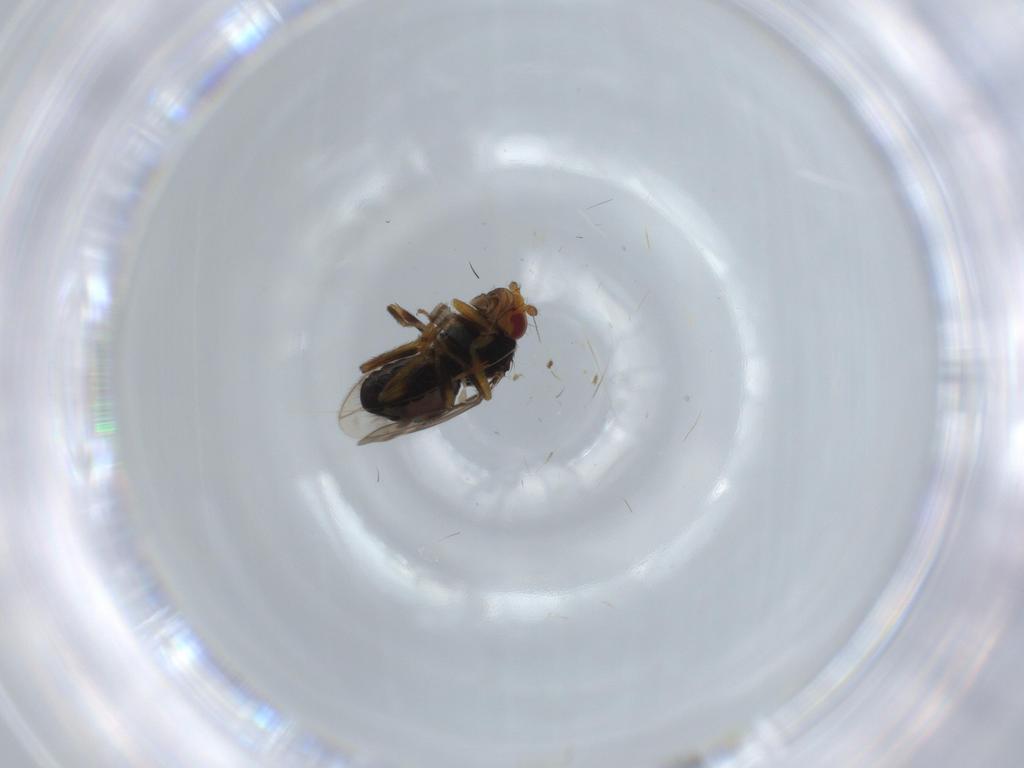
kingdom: Animalia
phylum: Arthropoda
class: Insecta
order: Diptera
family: Sphaeroceridae
